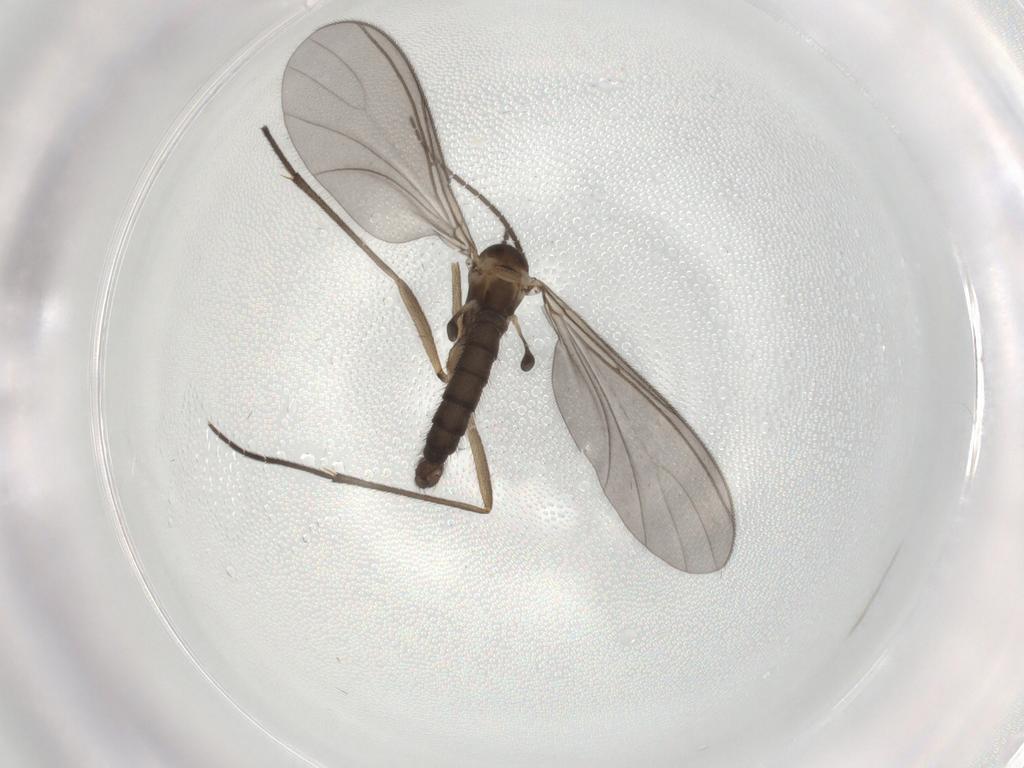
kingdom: Animalia
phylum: Arthropoda
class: Insecta
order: Diptera
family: Sciaridae
